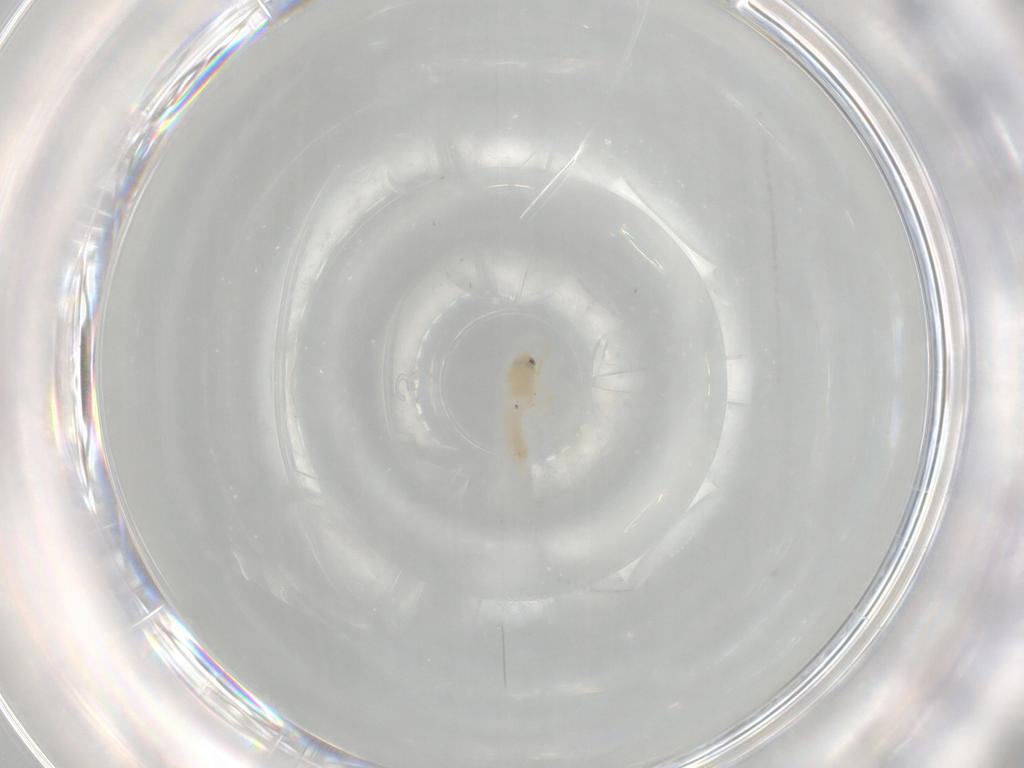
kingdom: Animalia
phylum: Arthropoda
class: Insecta
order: Hemiptera
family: Aleyrodidae
